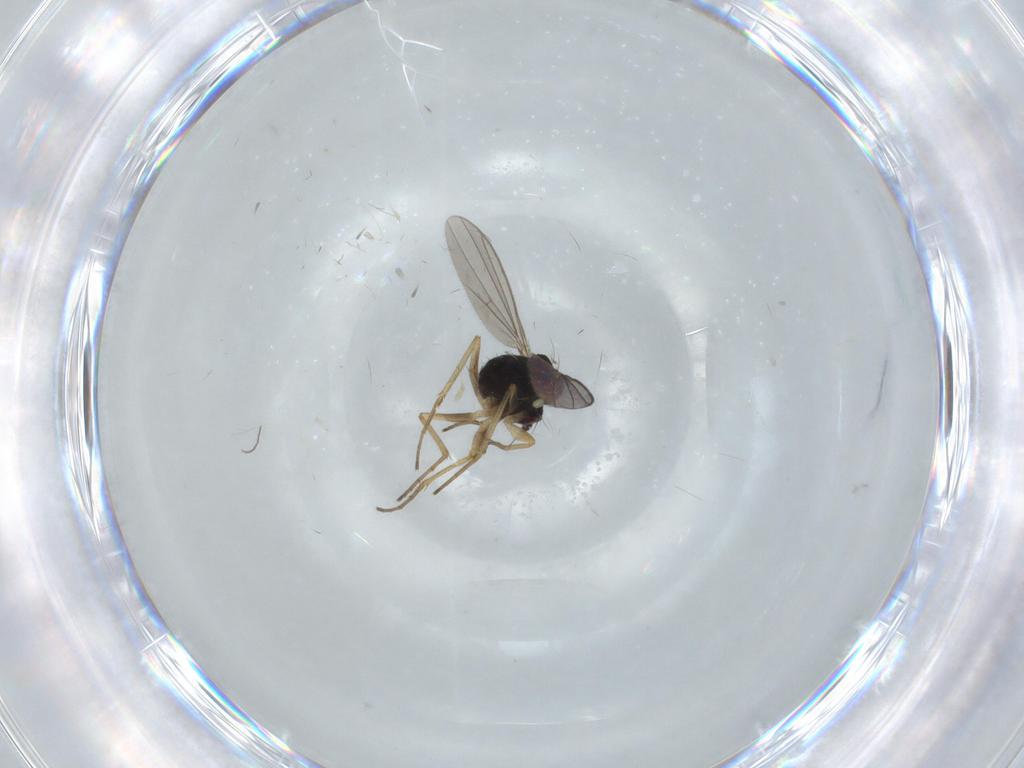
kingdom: Animalia
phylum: Arthropoda
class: Insecta
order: Diptera
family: Dolichopodidae
